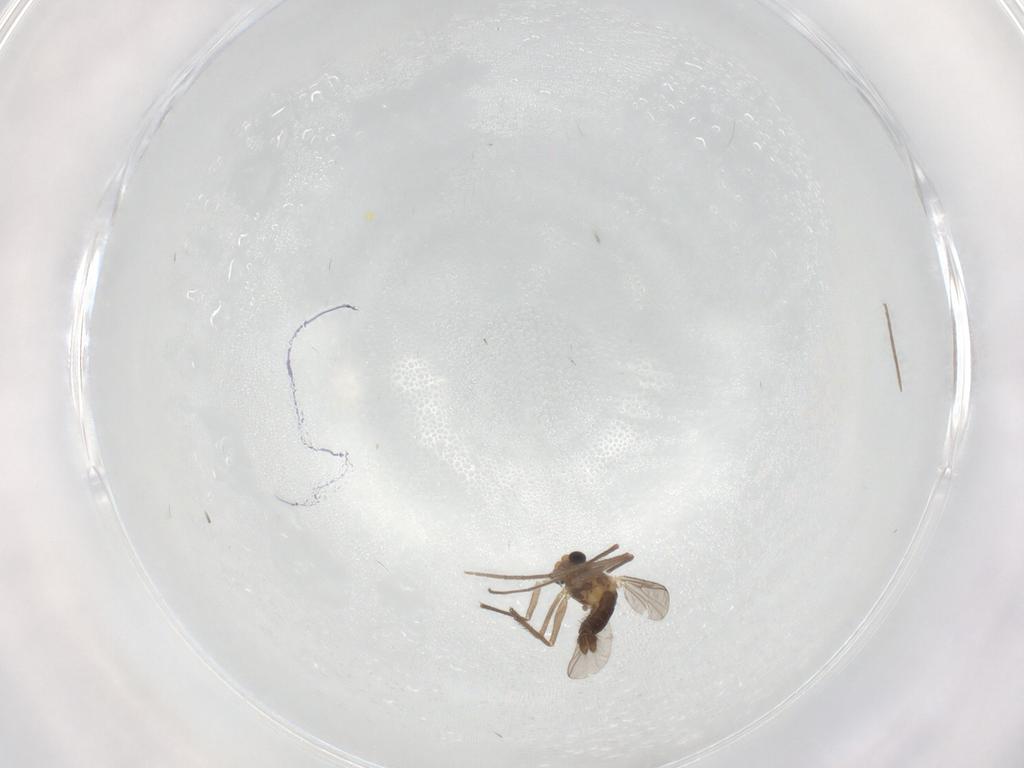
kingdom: Animalia
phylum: Arthropoda
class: Insecta
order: Diptera
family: Chironomidae
